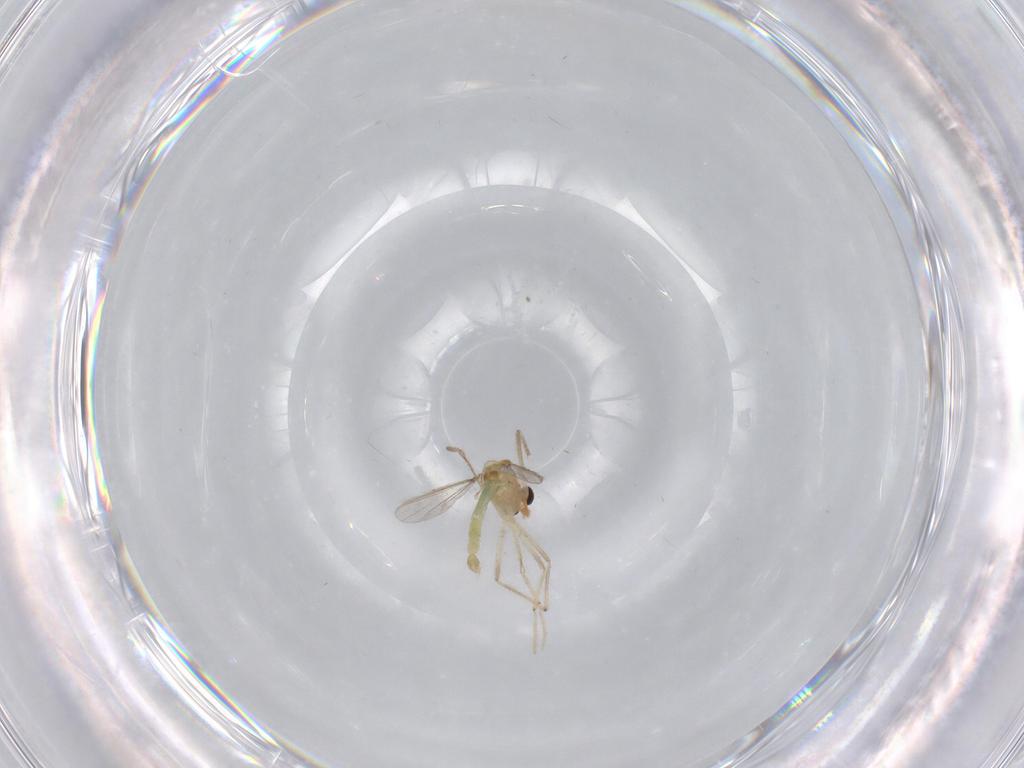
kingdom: Animalia
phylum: Arthropoda
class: Insecta
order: Diptera
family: Chironomidae
